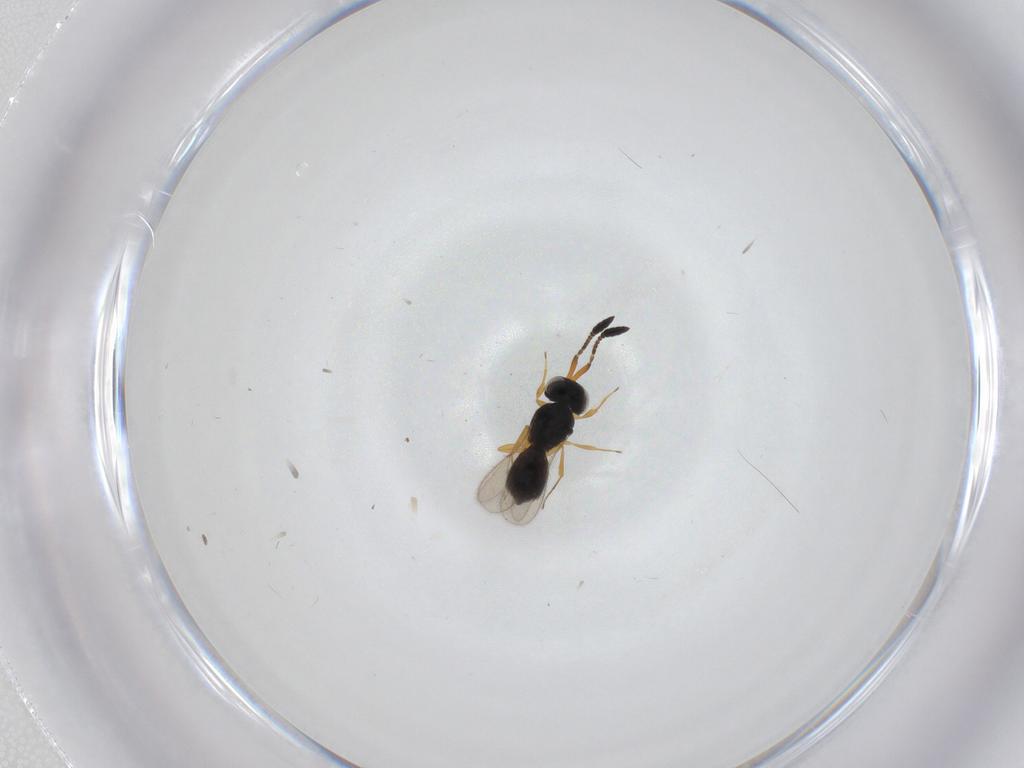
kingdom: Animalia
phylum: Arthropoda
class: Insecta
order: Hymenoptera
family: Scelionidae
